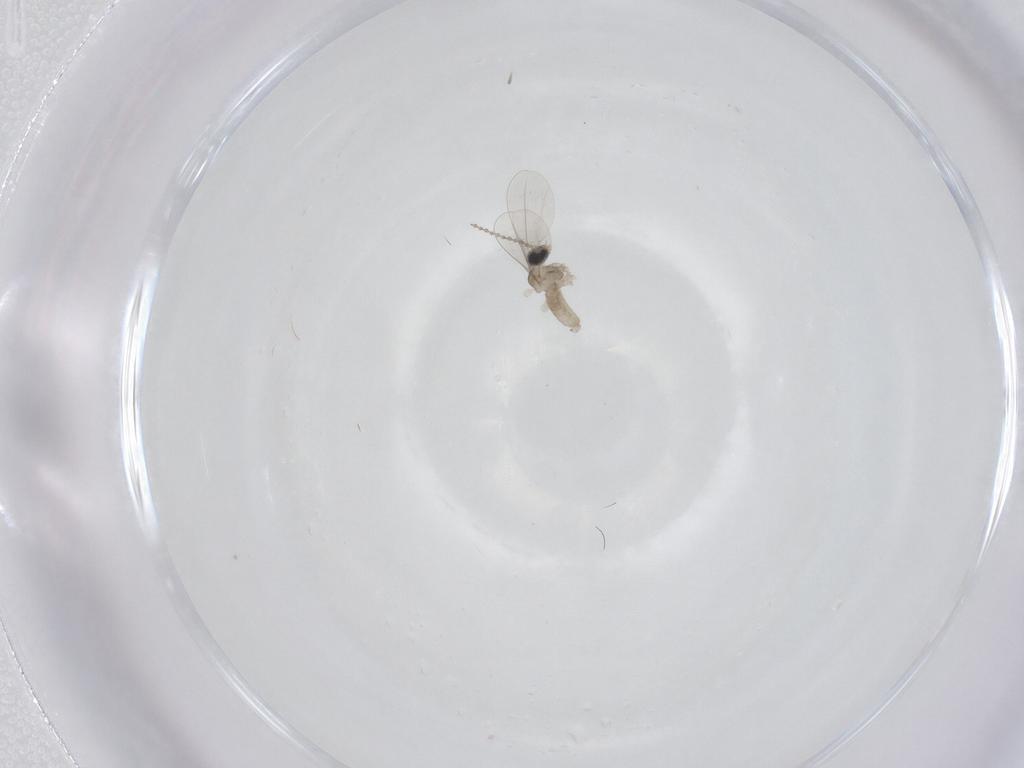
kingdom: Animalia
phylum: Arthropoda
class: Insecta
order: Diptera
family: Cecidomyiidae
